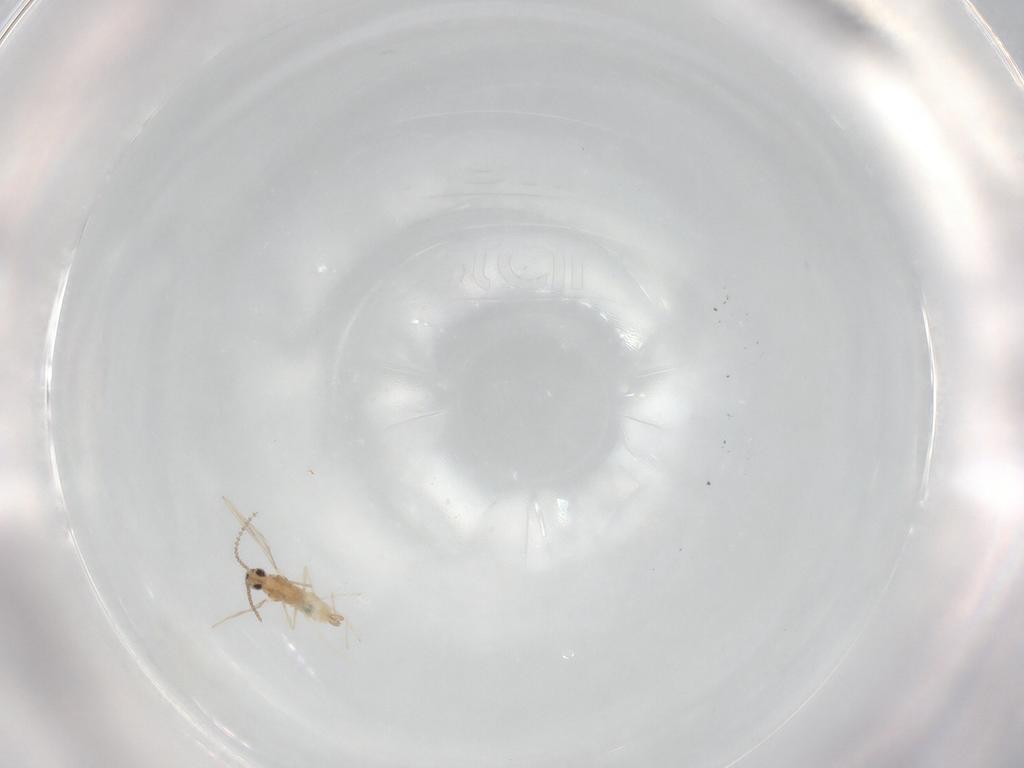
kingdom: Animalia
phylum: Arthropoda
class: Insecta
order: Diptera
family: Cecidomyiidae
